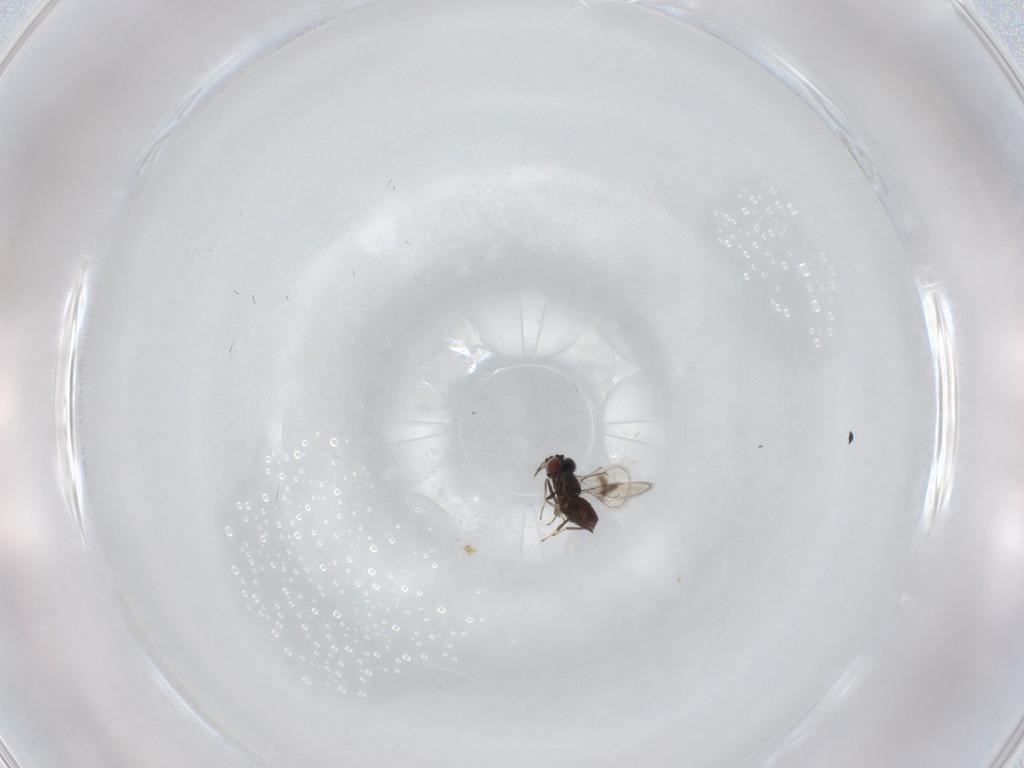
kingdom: Animalia
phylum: Arthropoda
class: Insecta
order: Hymenoptera
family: Eulophidae
